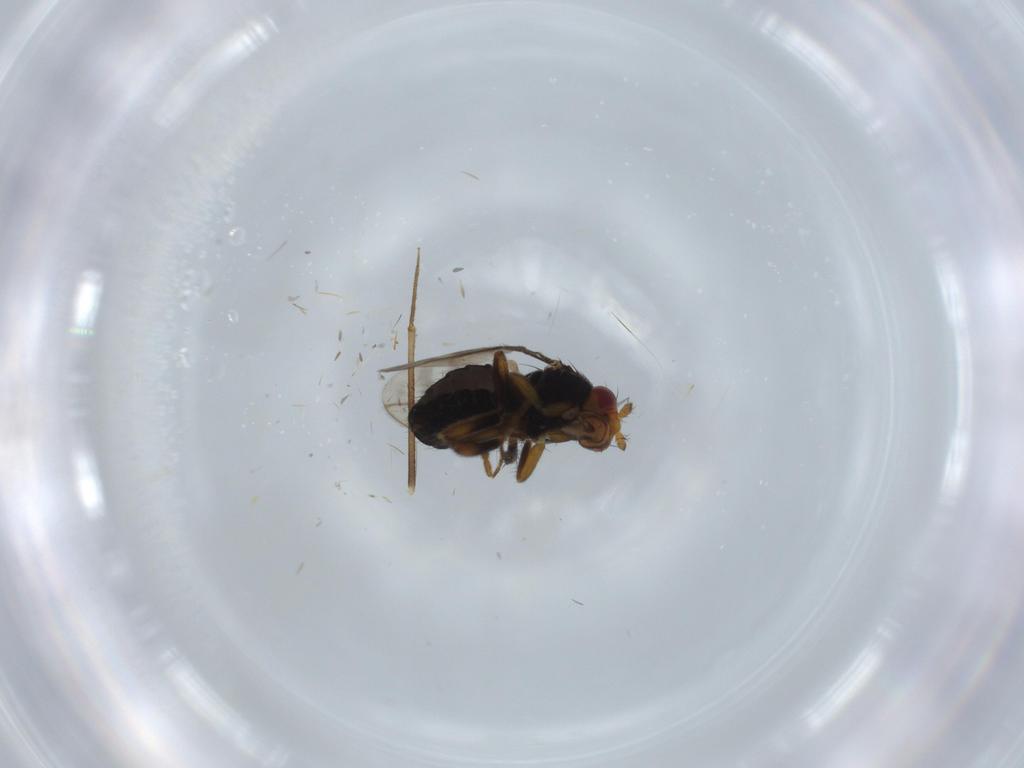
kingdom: Animalia
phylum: Arthropoda
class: Insecta
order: Diptera
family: Sphaeroceridae
